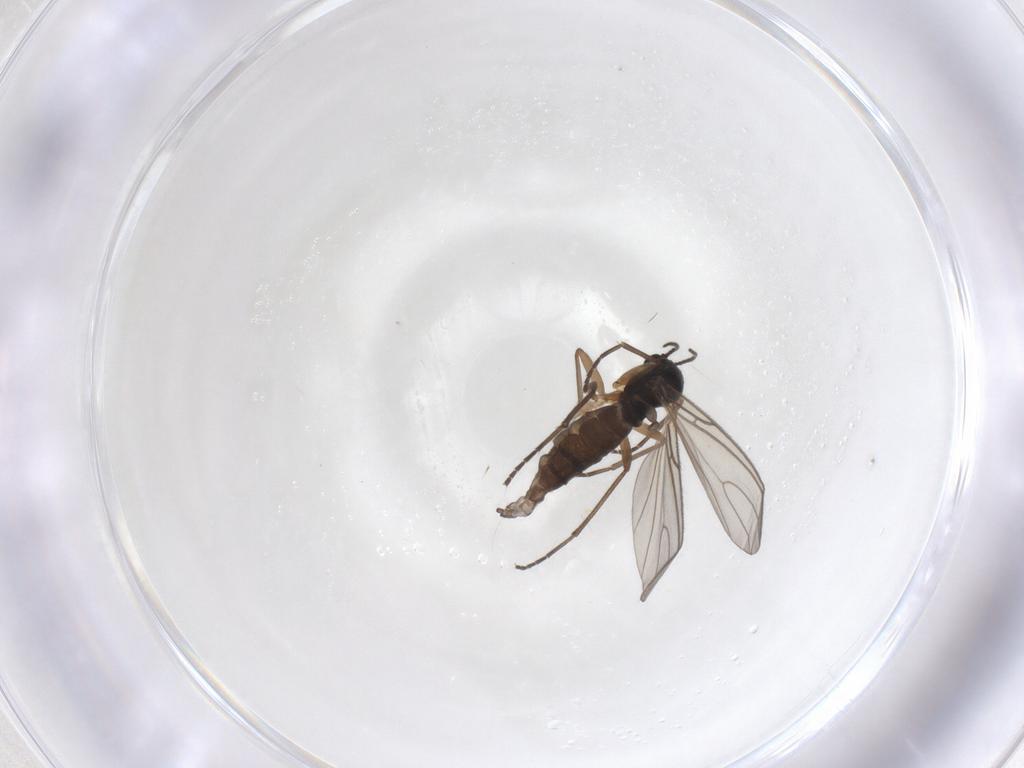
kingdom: Animalia
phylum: Arthropoda
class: Insecta
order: Diptera
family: Sciaridae
